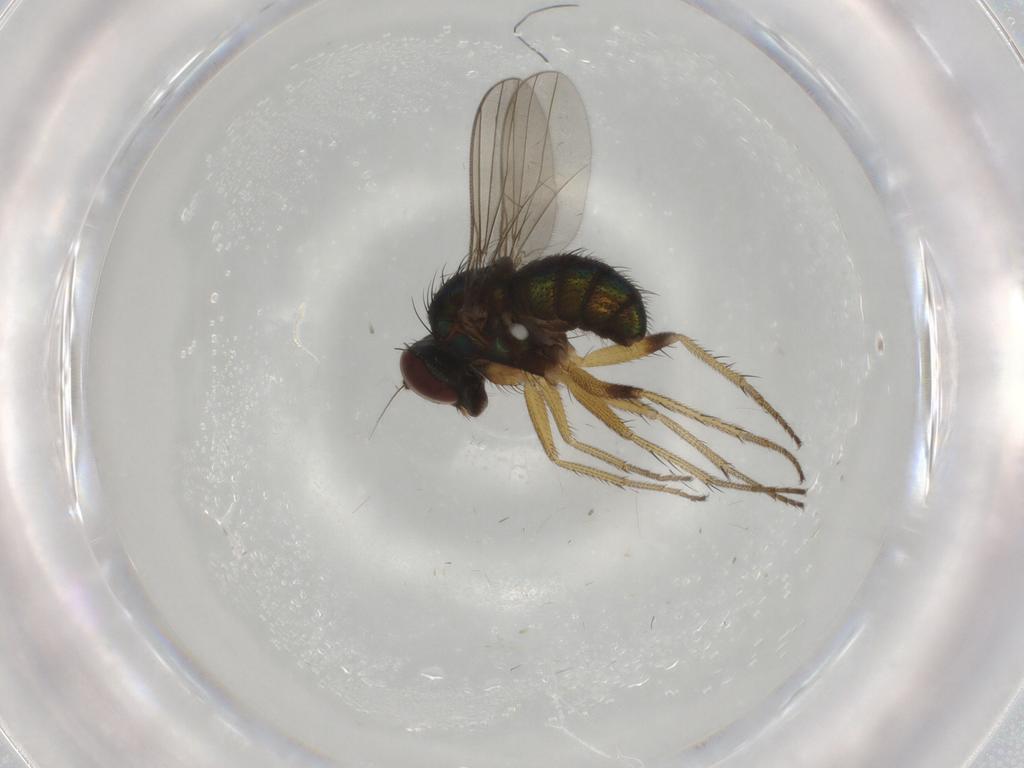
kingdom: Animalia
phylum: Arthropoda
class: Insecta
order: Diptera
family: Dolichopodidae
